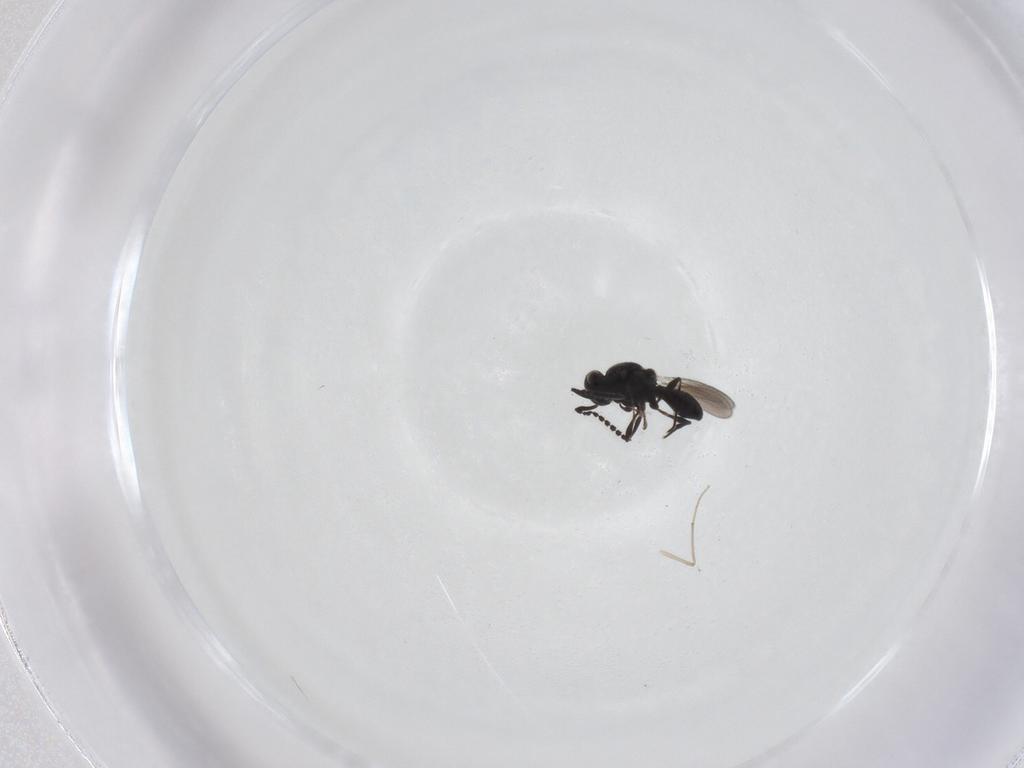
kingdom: Animalia
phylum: Arthropoda
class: Insecta
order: Hymenoptera
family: Platygastridae
